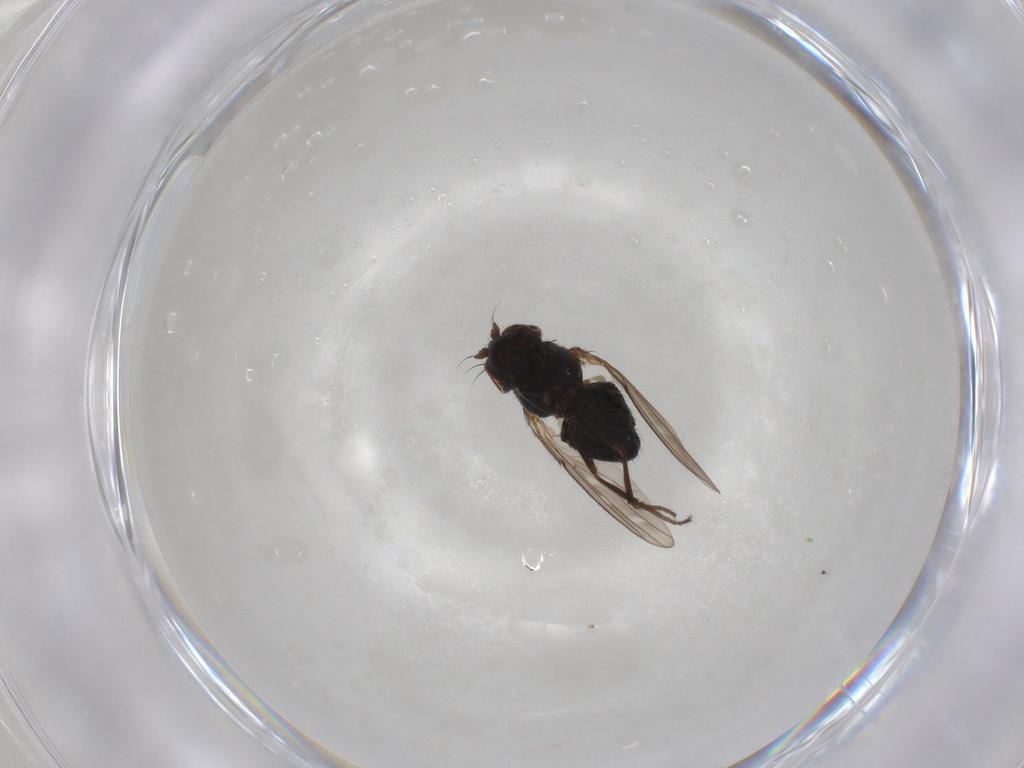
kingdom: Animalia
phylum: Arthropoda
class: Insecta
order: Diptera
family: Ephydridae
